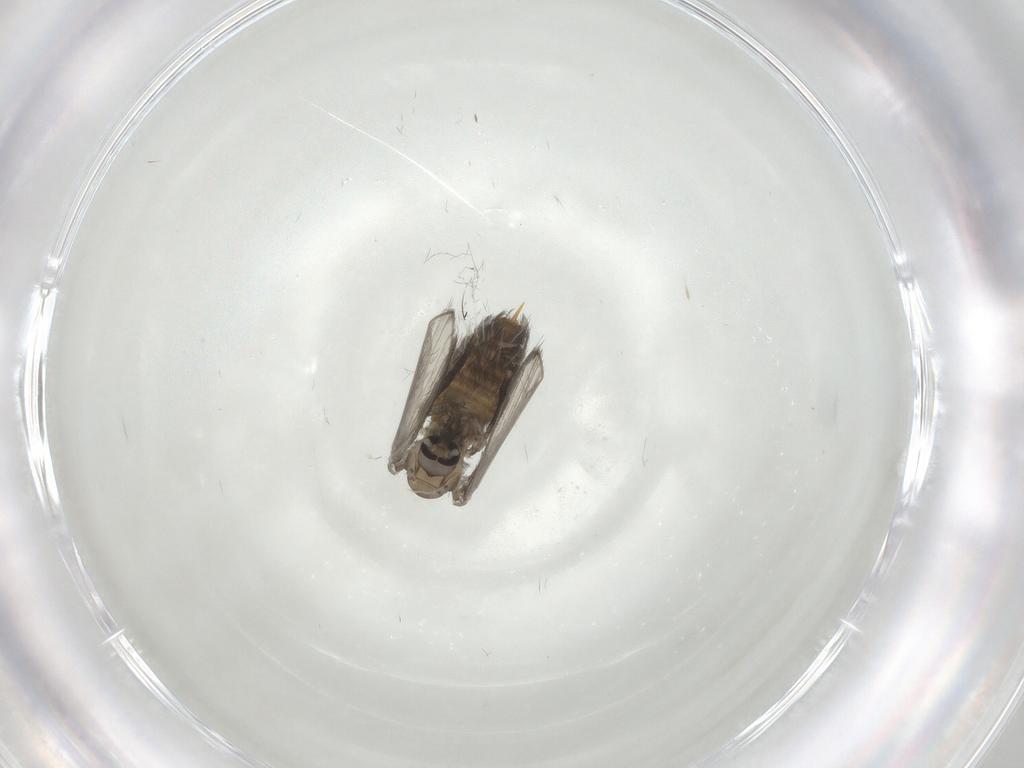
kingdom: Animalia
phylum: Arthropoda
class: Insecta
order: Diptera
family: Psychodidae
